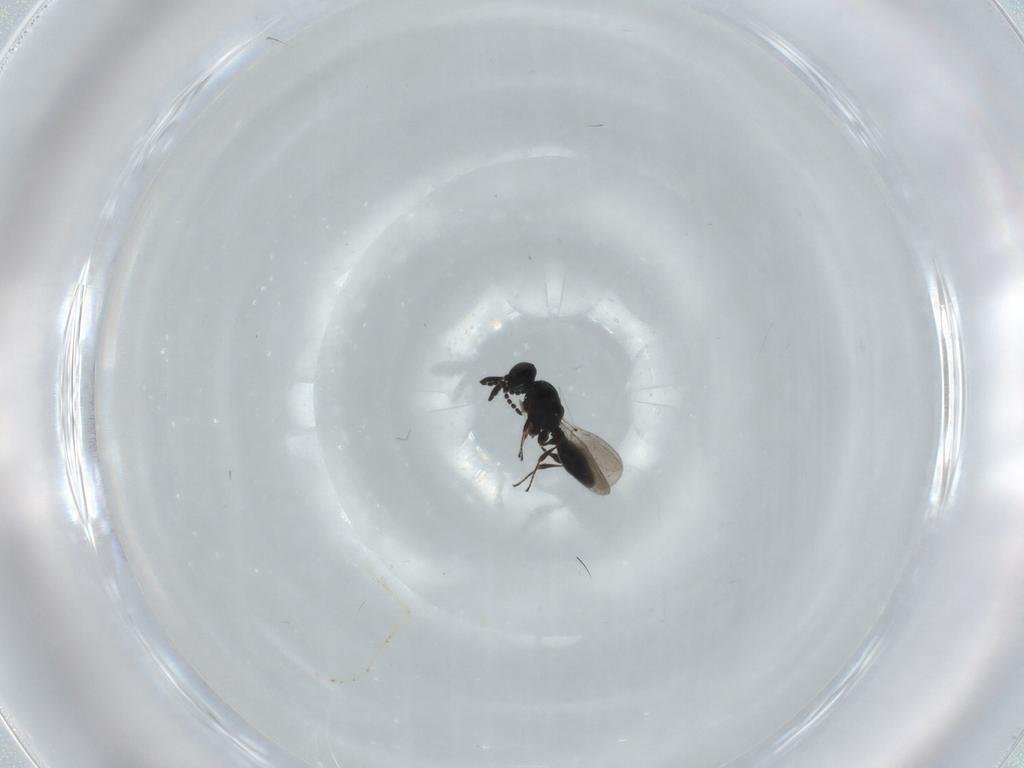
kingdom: Animalia
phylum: Arthropoda
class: Insecta
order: Hymenoptera
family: Platygastridae
